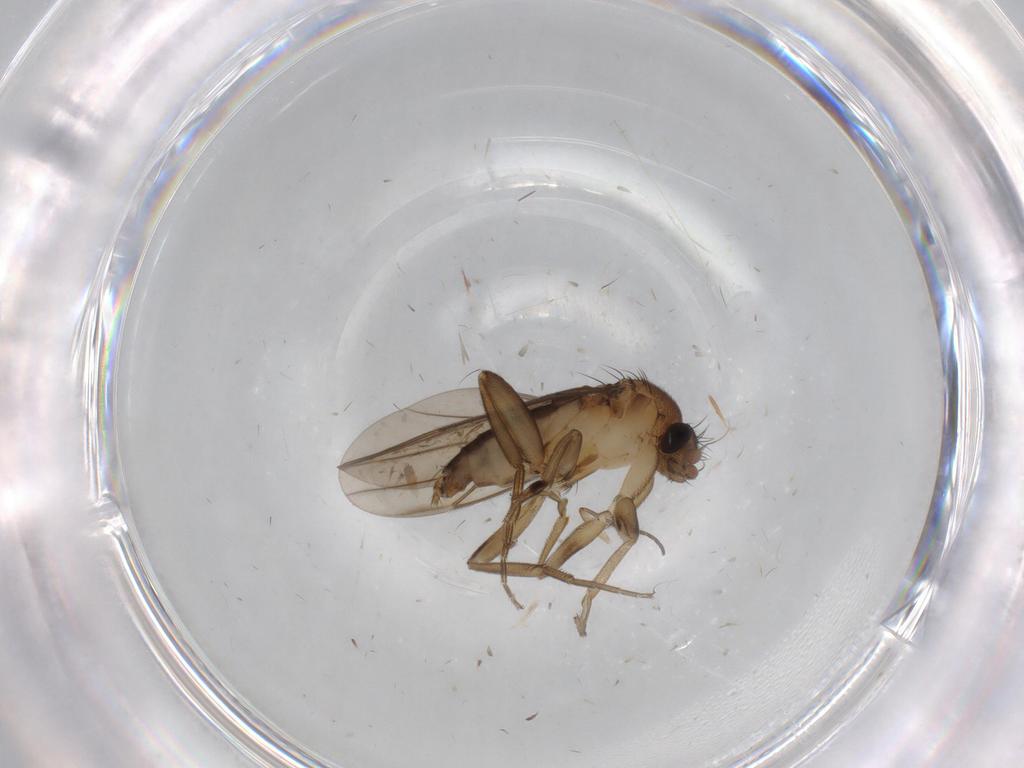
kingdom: Animalia
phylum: Arthropoda
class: Insecta
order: Diptera
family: Phoridae
